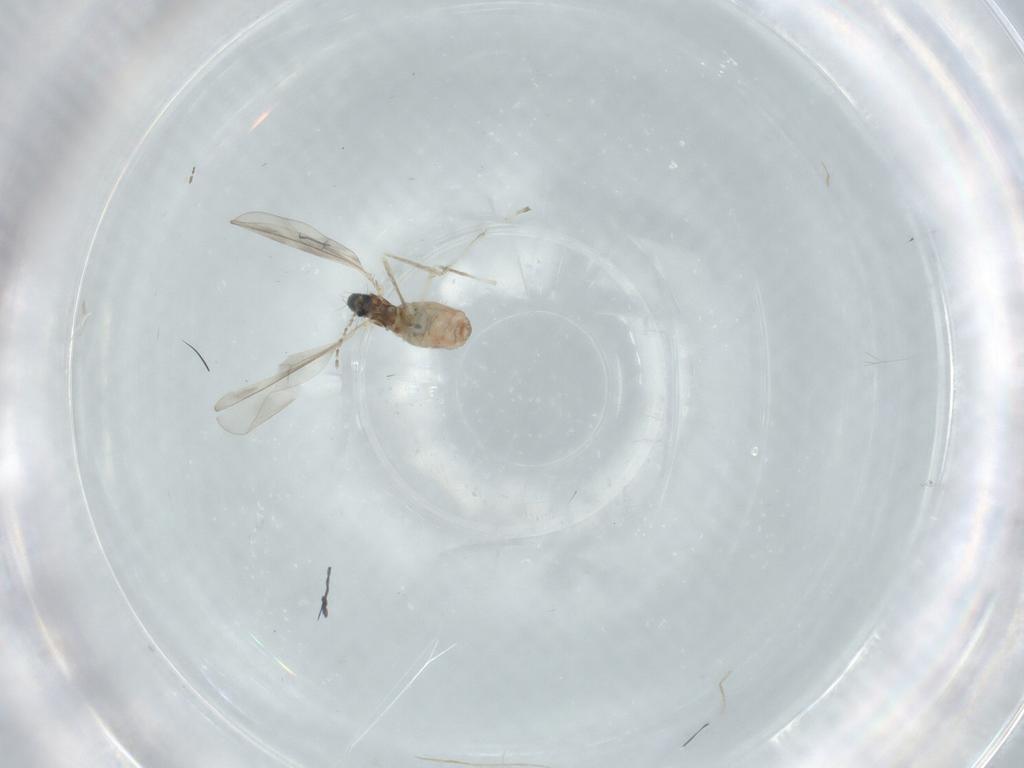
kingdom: Animalia
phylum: Arthropoda
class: Insecta
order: Diptera
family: Cecidomyiidae
